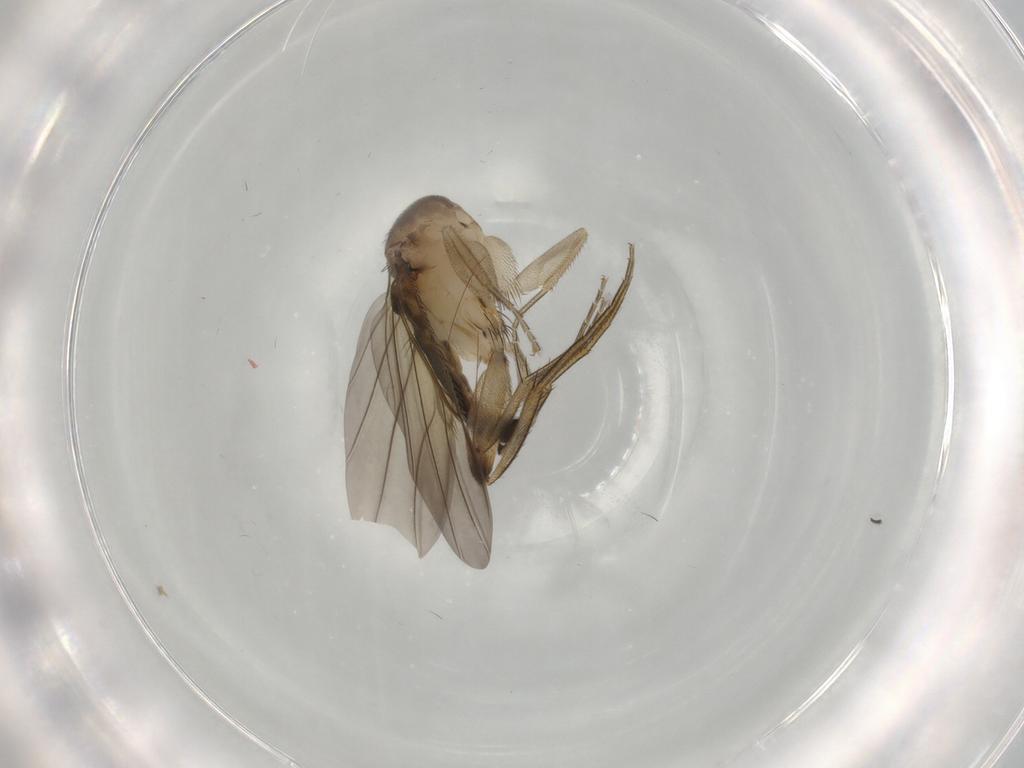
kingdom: Animalia
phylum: Arthropoda
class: Insecta
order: Diptera
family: Phoridae
